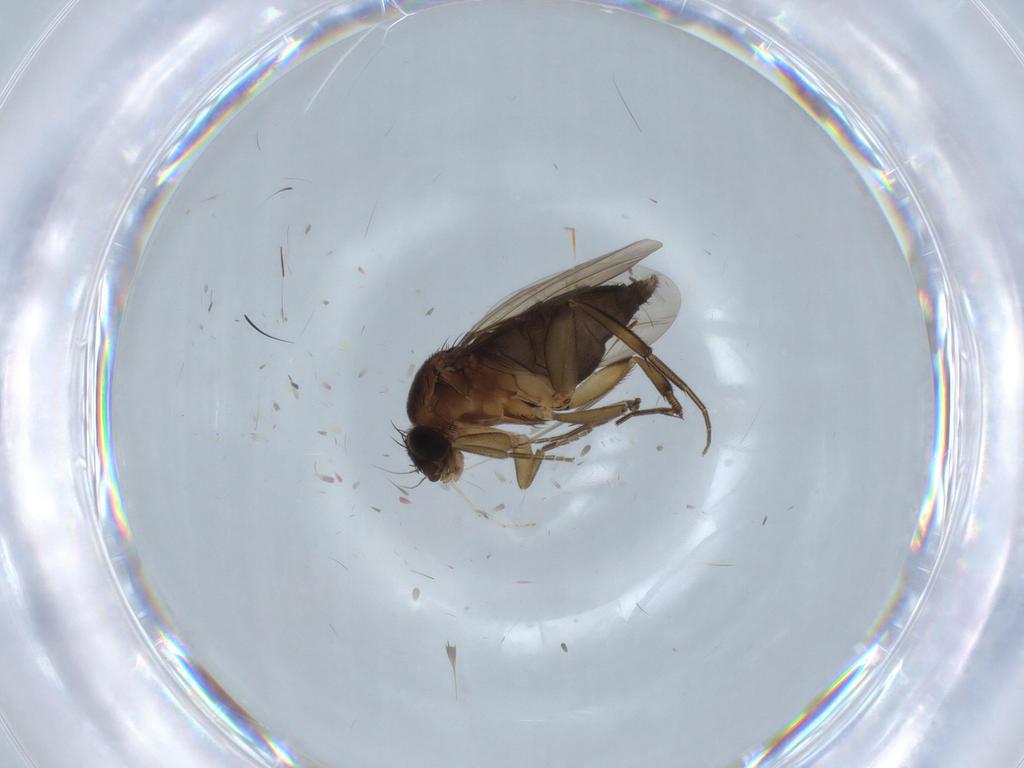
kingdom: Animalia
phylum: Arthropoda
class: Insecta
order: Diptera
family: Phoridae
